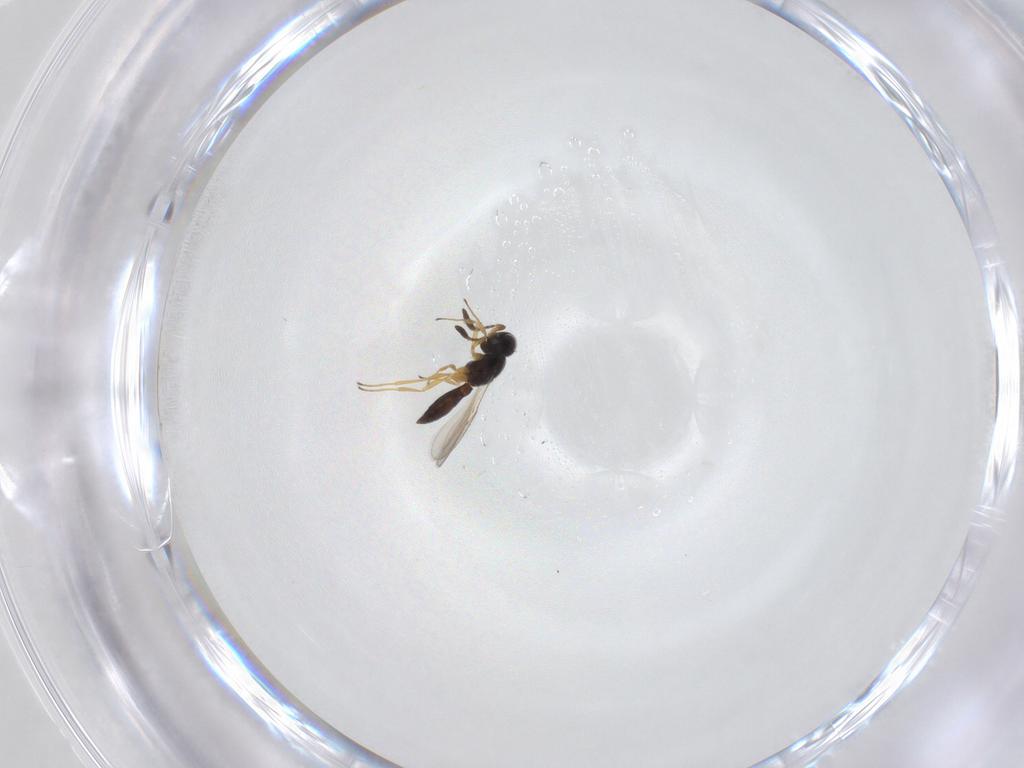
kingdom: Animalia
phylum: Arthropoda
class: Insecta
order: Hymenoptera
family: Scelionidae
